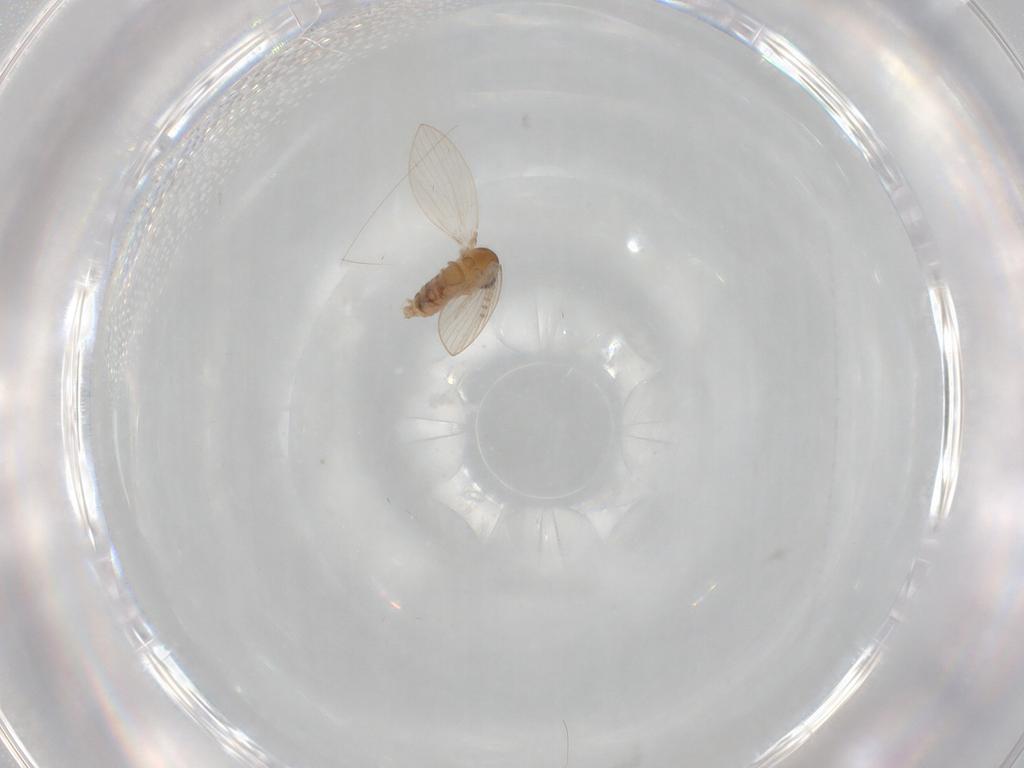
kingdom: Animalia
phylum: Arthropoda
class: Insecta
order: Diptera
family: Psychodidae
